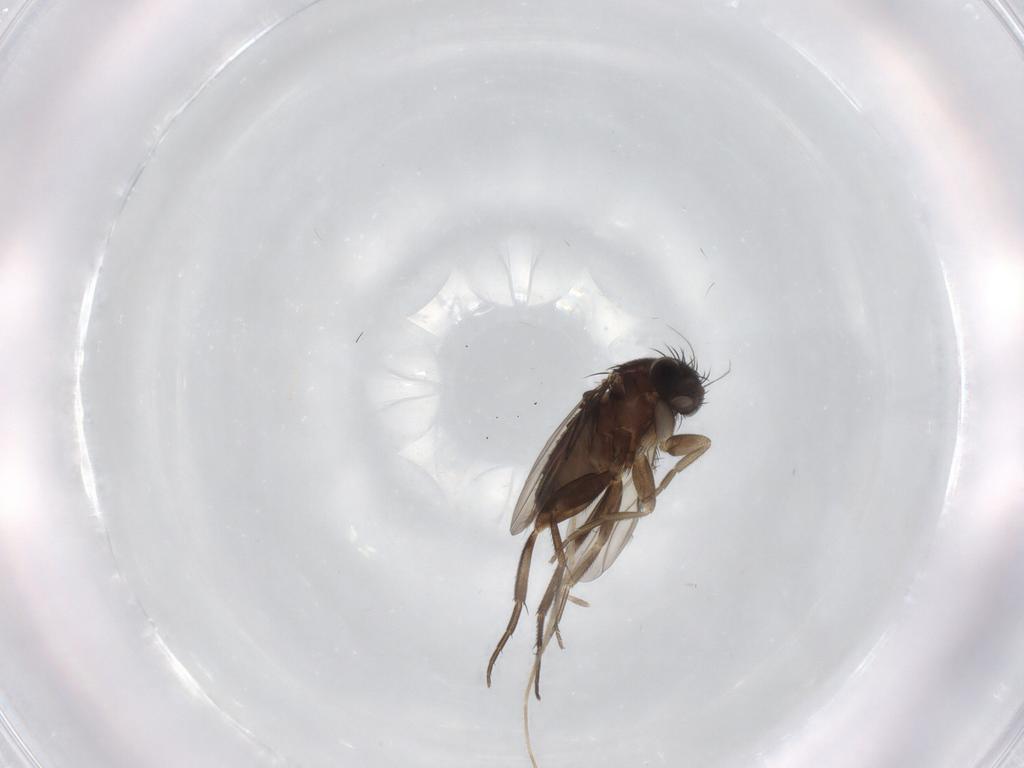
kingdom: Animalia
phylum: Arthropoda
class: Insecta
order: Diptera
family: Phoridae
